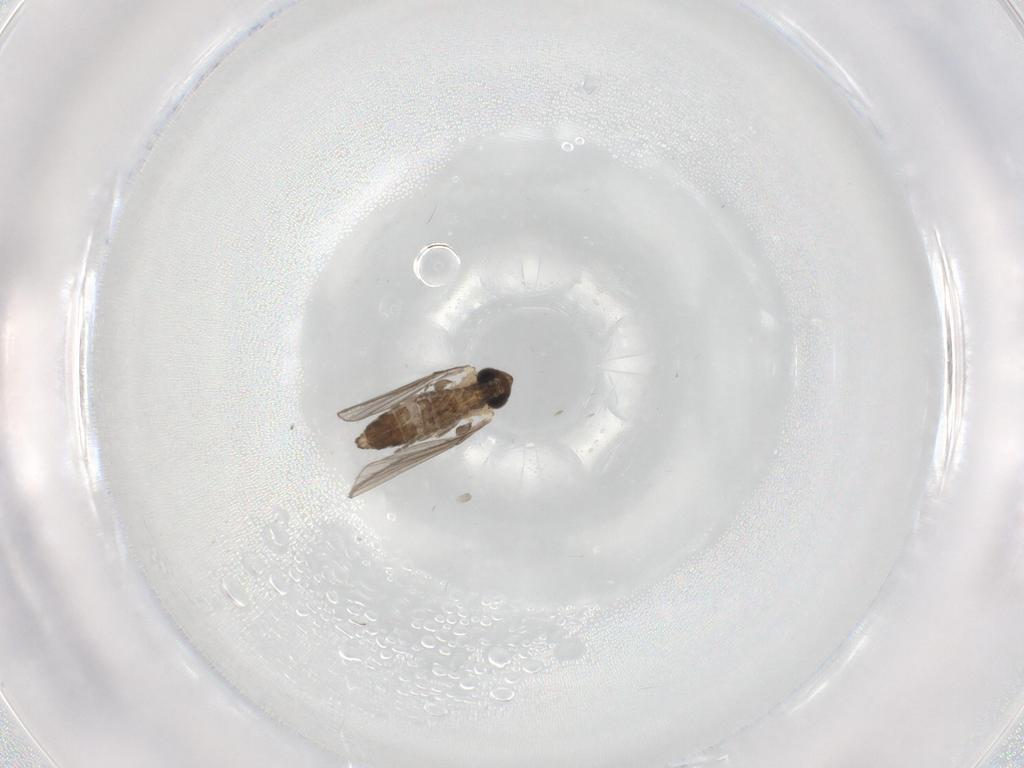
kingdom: Animalia
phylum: Arthropoda
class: Insecta
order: Diptera
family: Psychodidae
